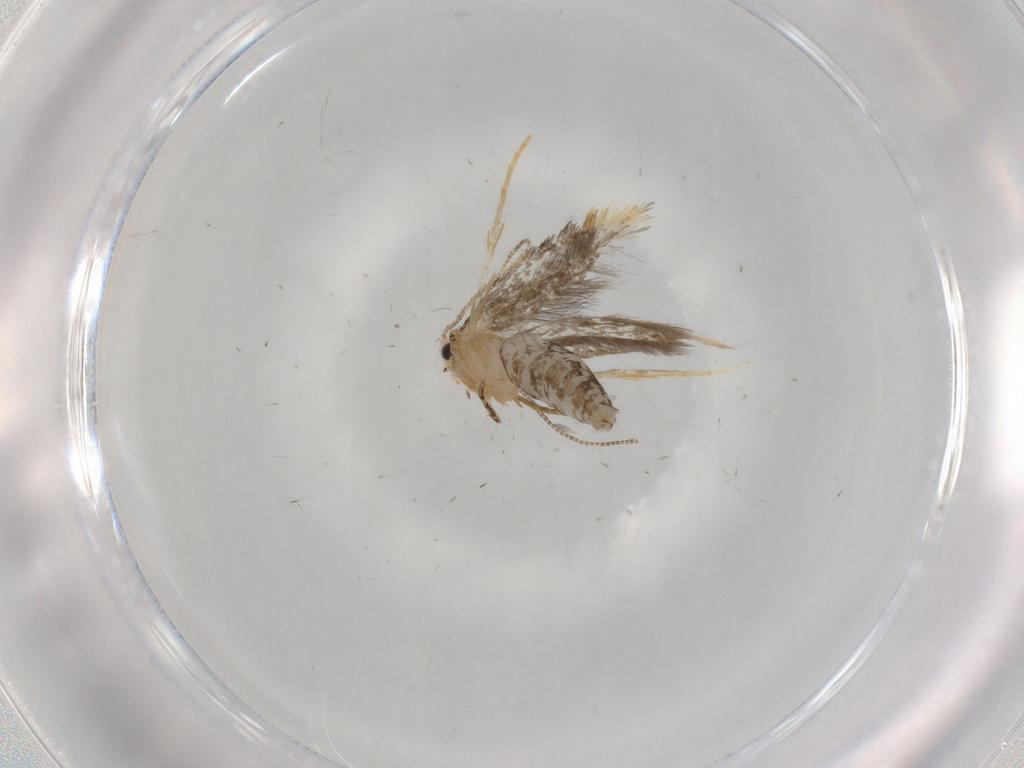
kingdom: Animalia
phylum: Arthropoda
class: Insecta
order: Lepidoptera
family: Tineidae
